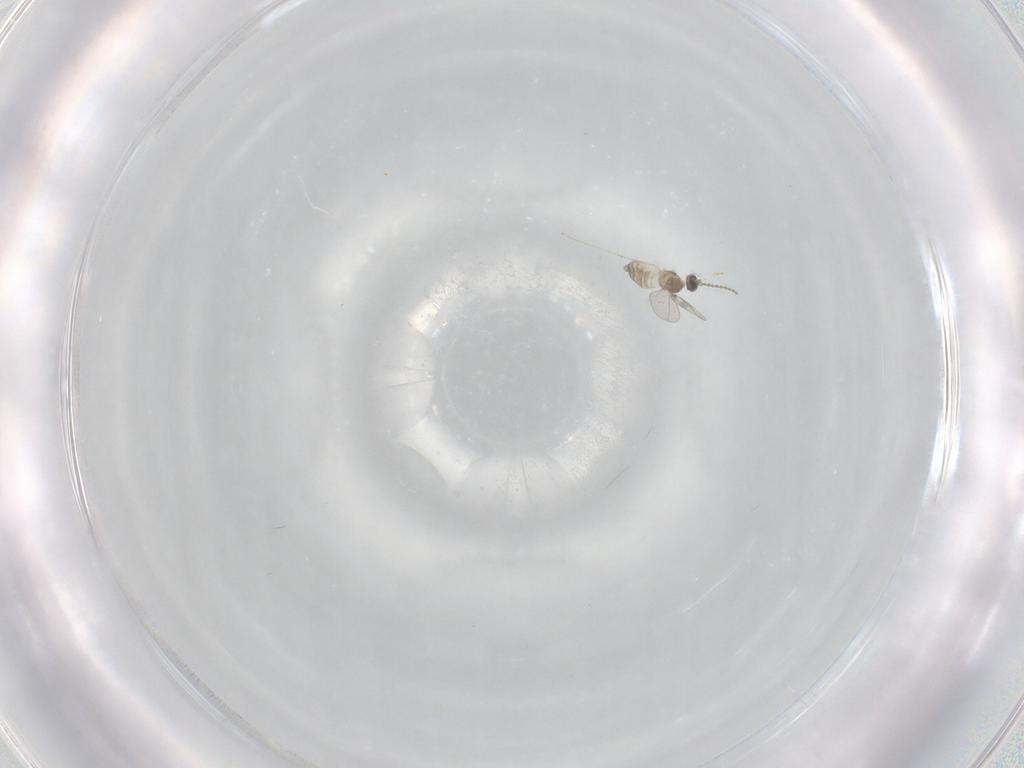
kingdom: Animalia
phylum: Arthropoda
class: Insecta
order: Diptera
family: Cecidomyiidae
